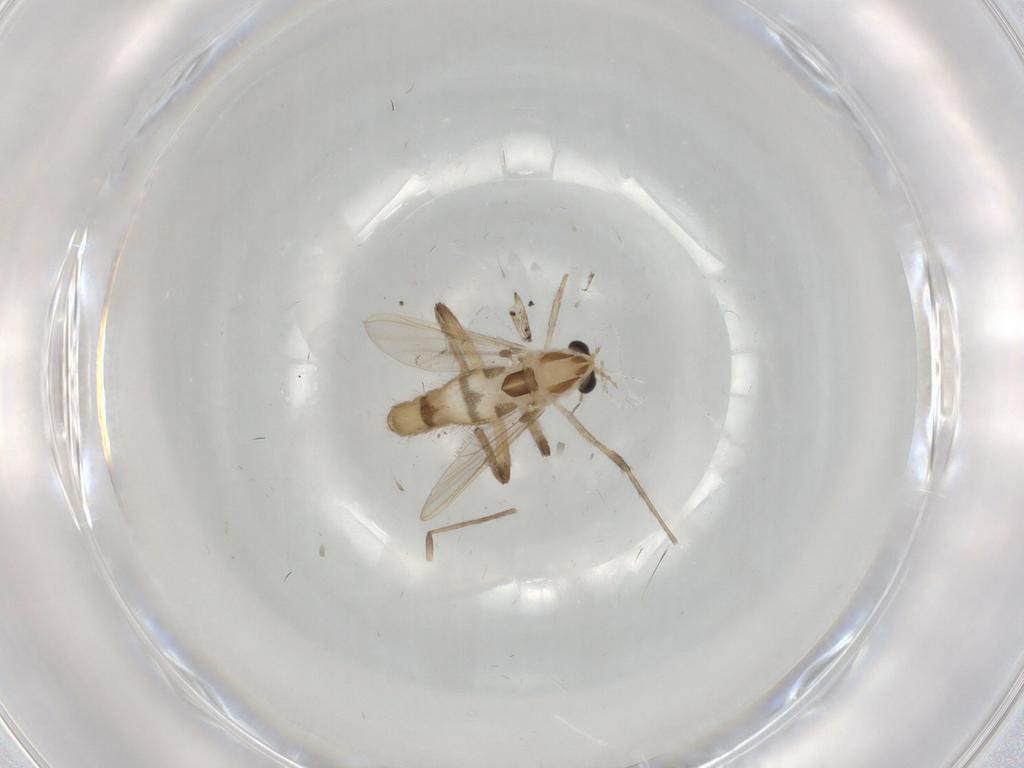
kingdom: Animalia
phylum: Arthropoda
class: Insecta
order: Diptera
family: Chironomidae
